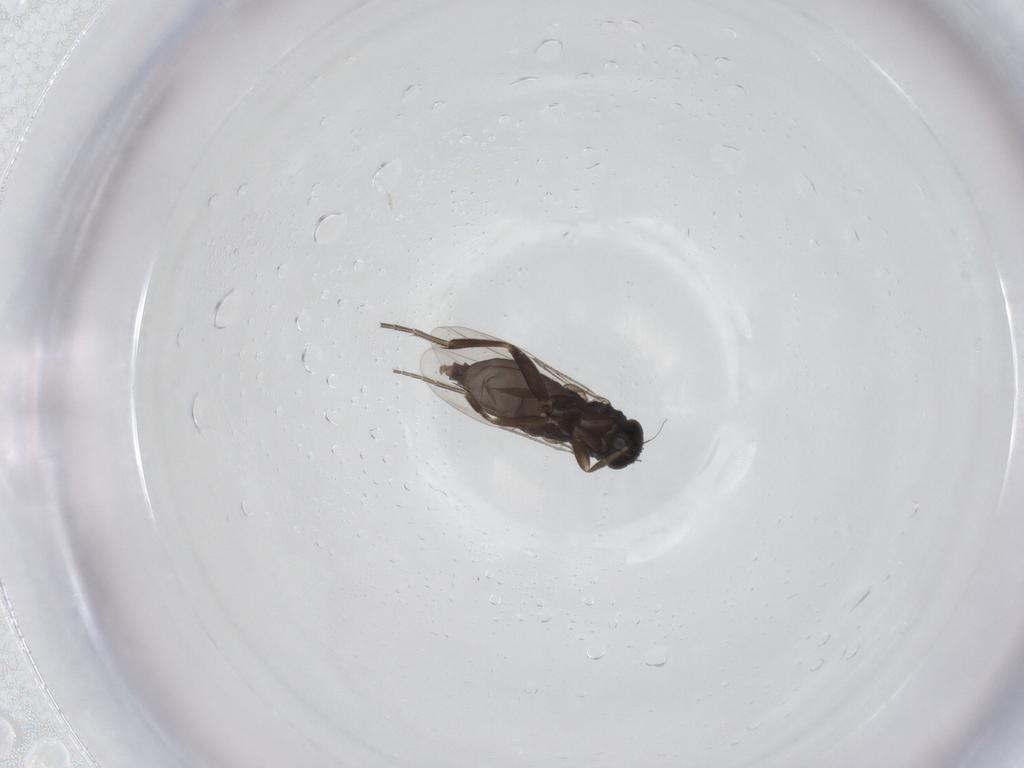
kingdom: Animalia
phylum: Arthropoda
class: Insecta
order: Diptera
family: Phoridae
